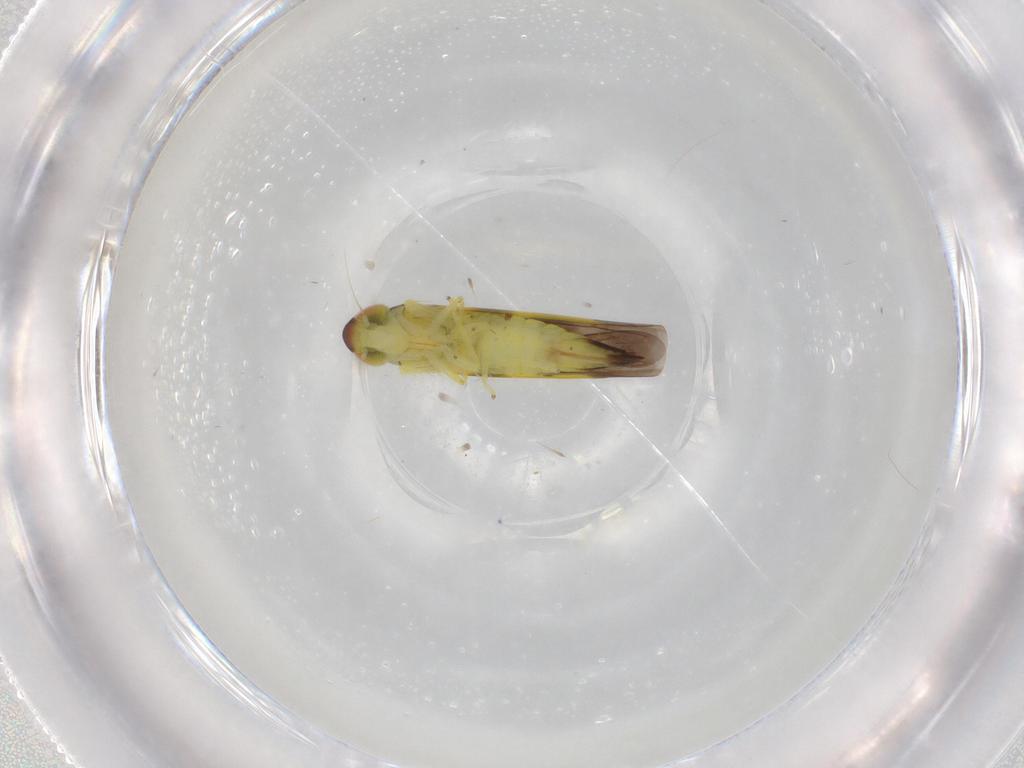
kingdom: Animalia
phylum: Arthropoda
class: Insecta
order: Hemiptera
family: Cicadellidae
